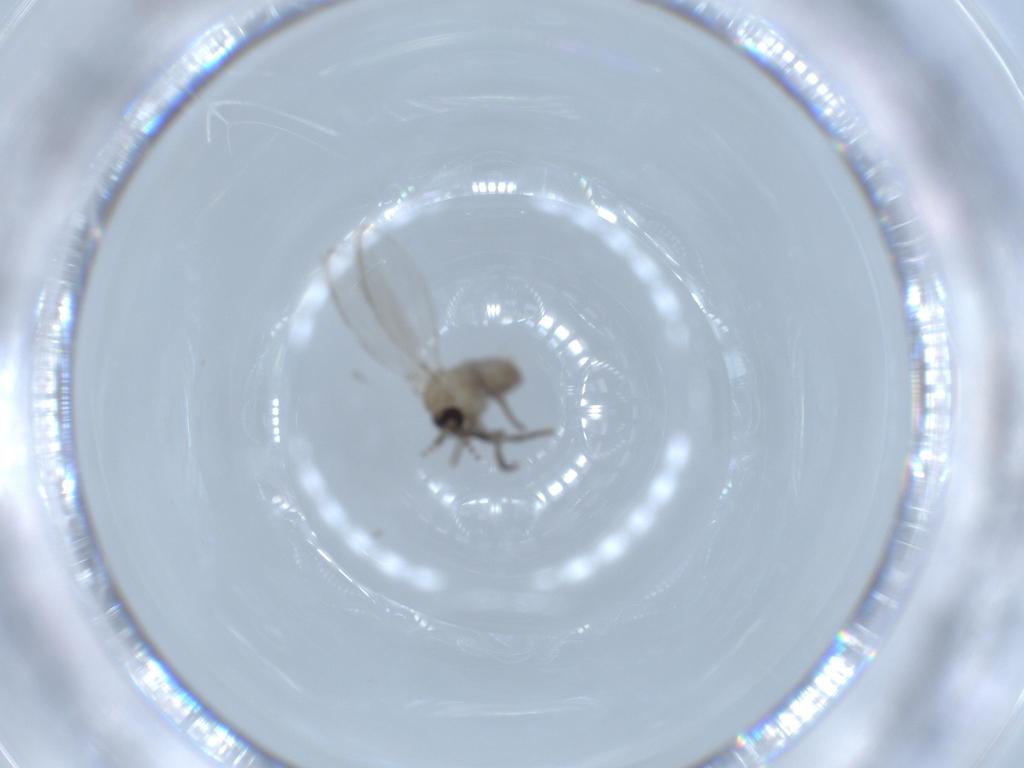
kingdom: Animalia
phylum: Arthropoda
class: Insecta
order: Diptera
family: Psychodidae
